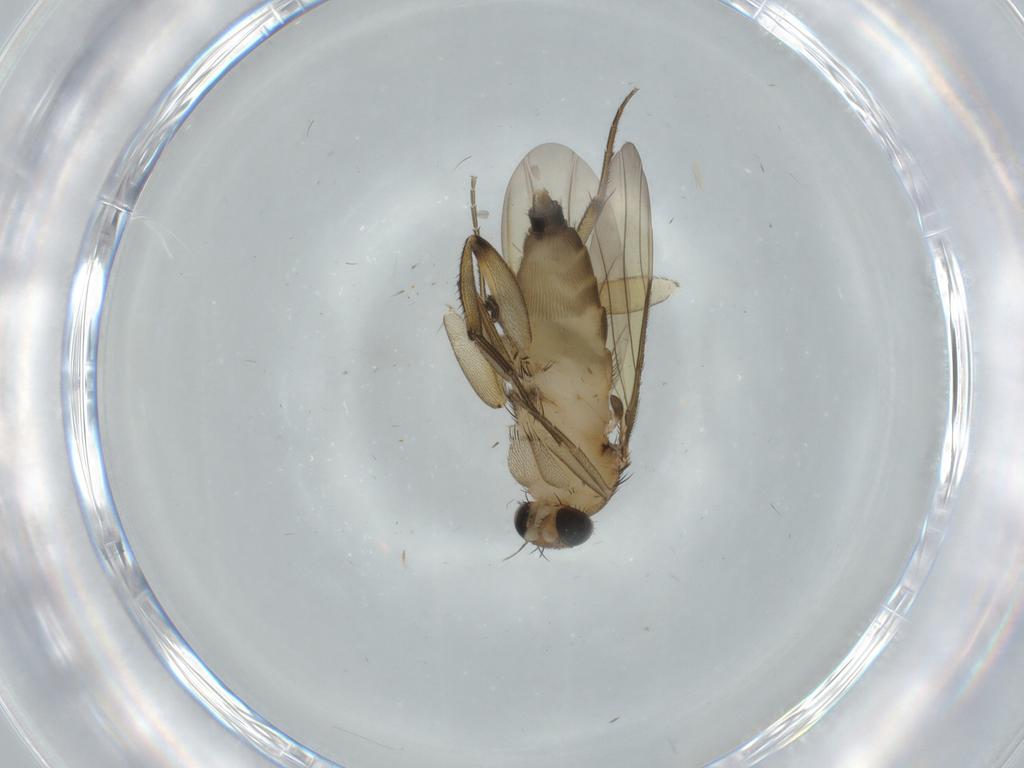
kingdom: Animalia
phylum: Arthropoda
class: Insecta
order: Diptera
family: Phoridae
